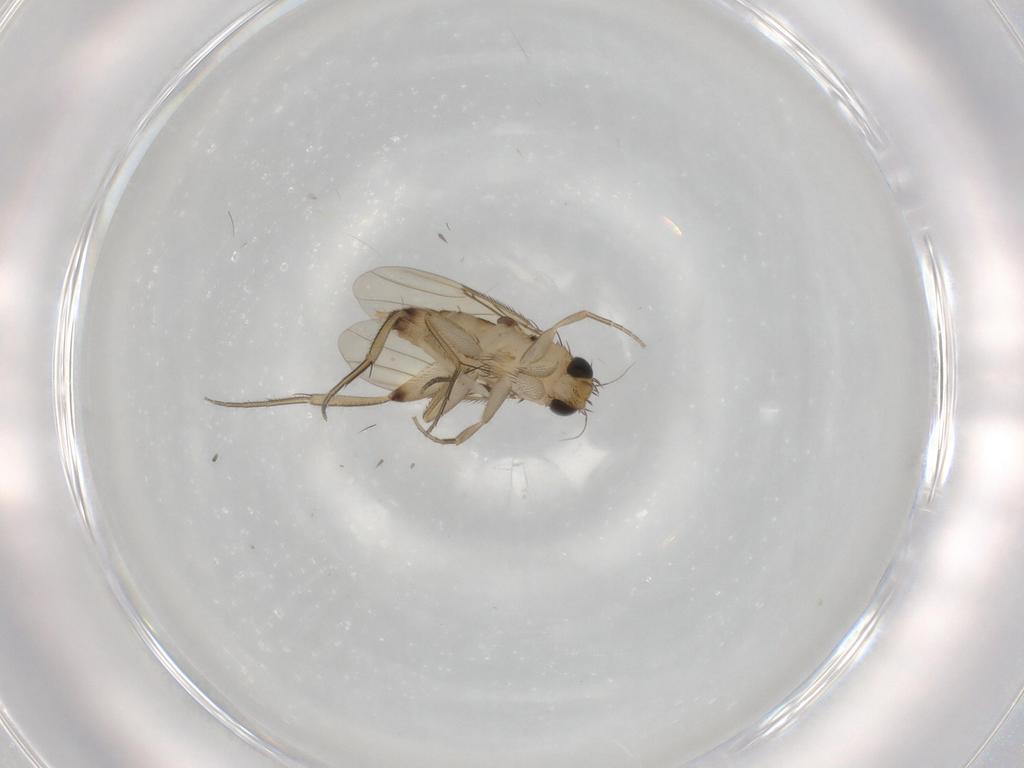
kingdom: Animalia
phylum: Arthropoda
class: Insecta
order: Diptera
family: Phoridae
